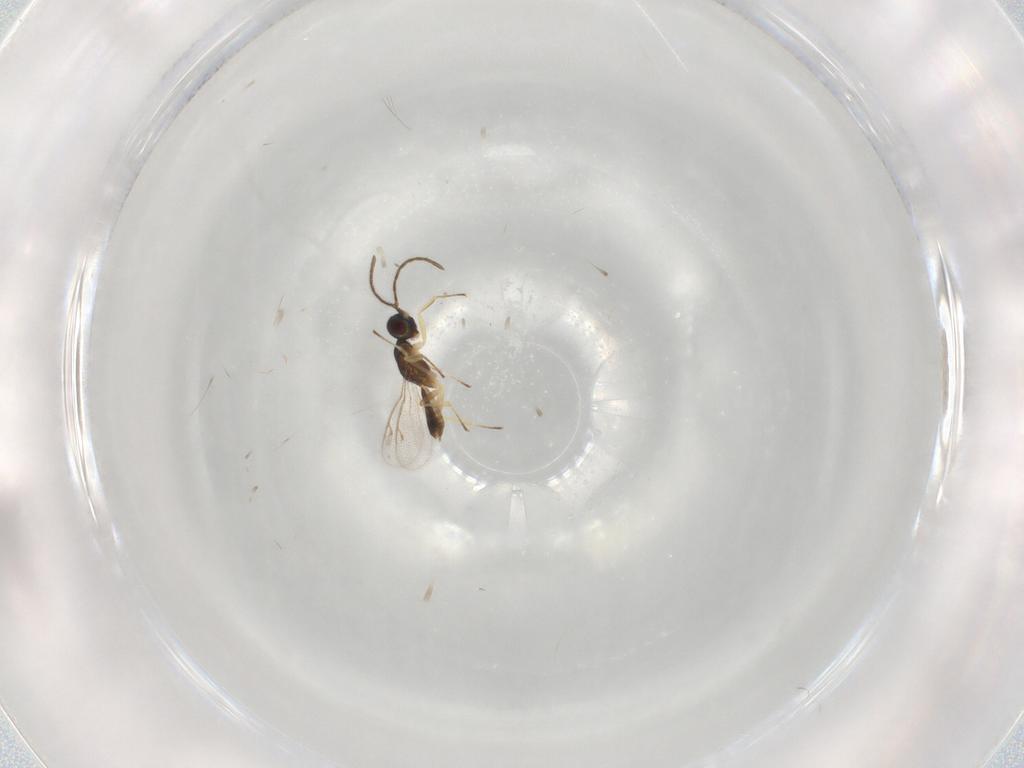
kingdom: Animalia
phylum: Arthropoda
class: Insecta
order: Hymenoptera
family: Eupelmidae
